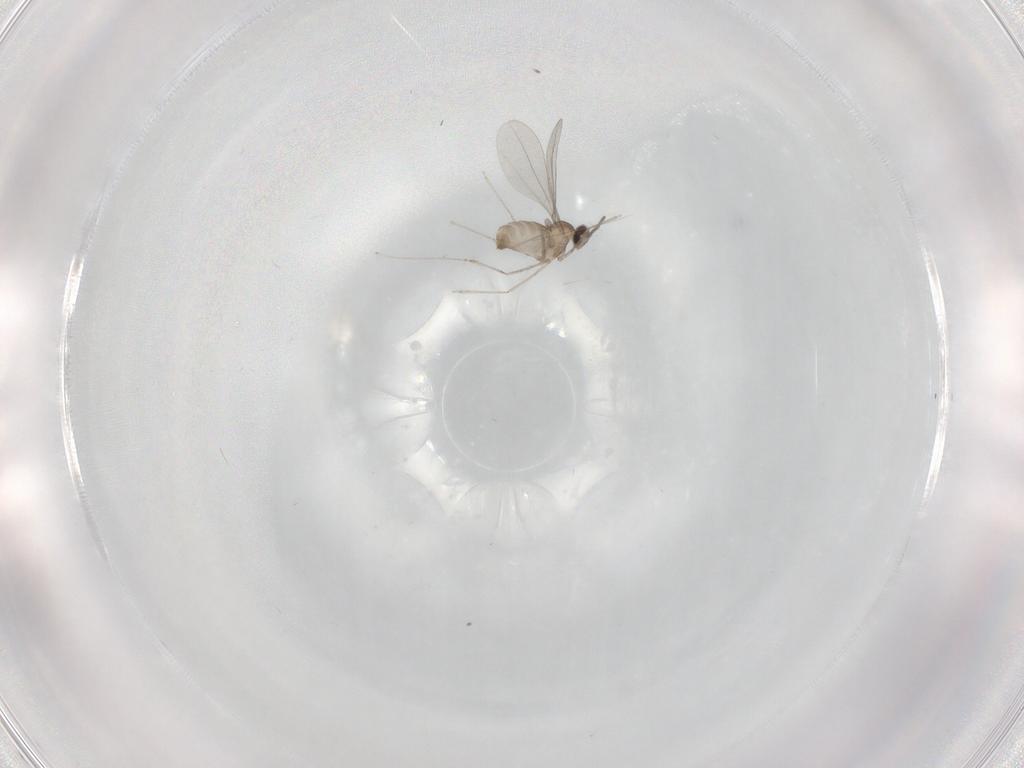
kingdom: Animalia
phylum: Arthropoda
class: Insecta
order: Diptera
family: Cecidomyiidae
